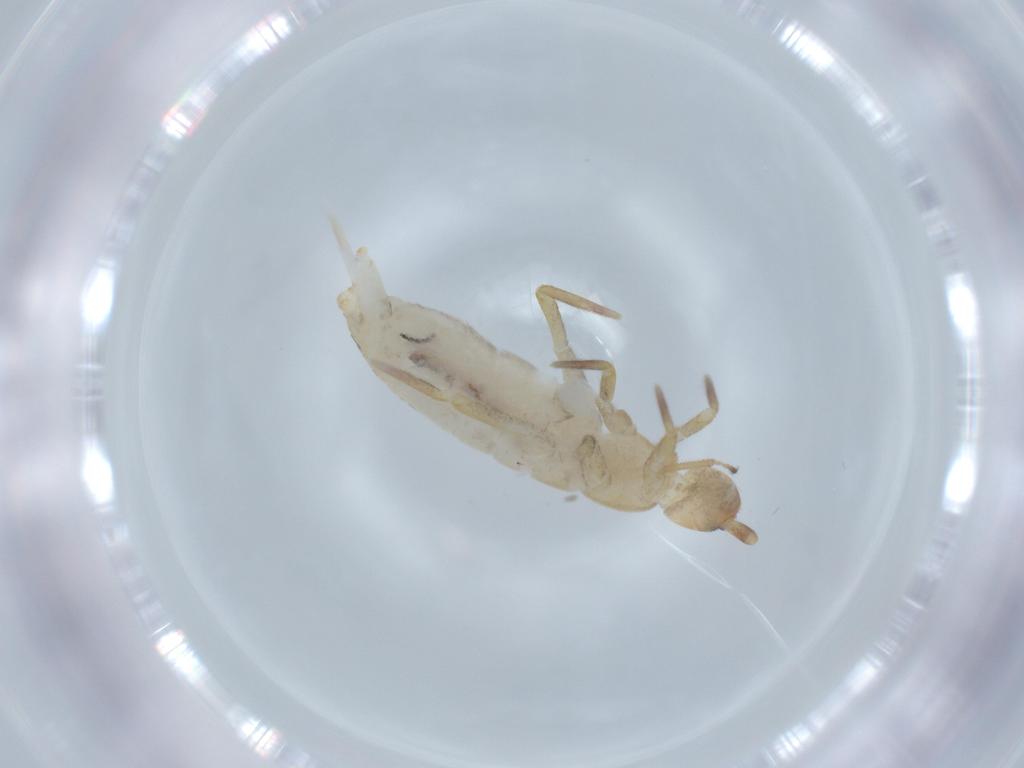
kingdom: Animalia
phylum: Arthropoda
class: Collembola
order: Entomobryomorpha
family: Tomoceridae
